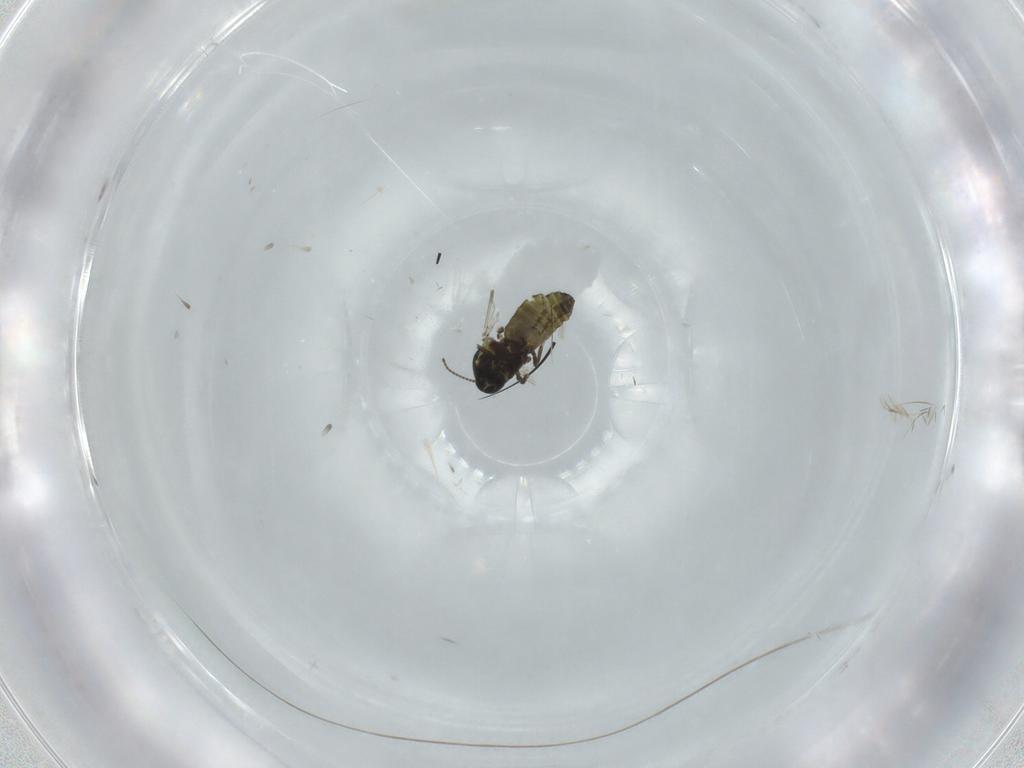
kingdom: Animalia
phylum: Arthropoda
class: Insecta
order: Diptera
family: Ceratopogonidae
